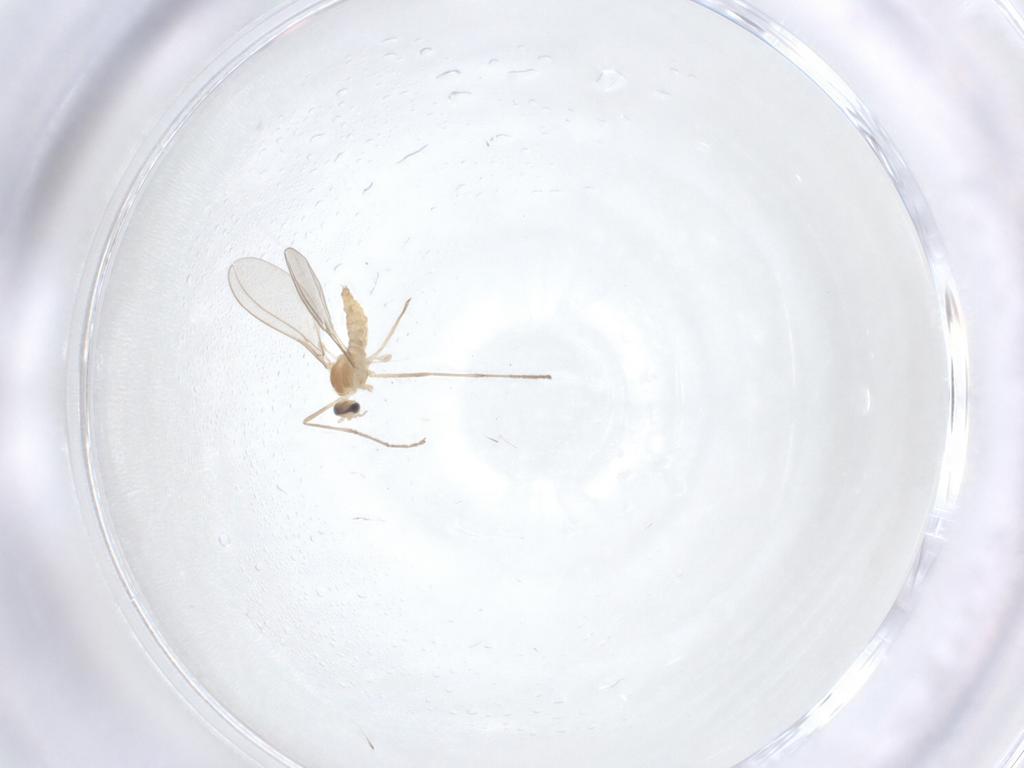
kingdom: Animalia
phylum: Arthropoda
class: Insecta
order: Diptera
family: Cecidomyiidae
